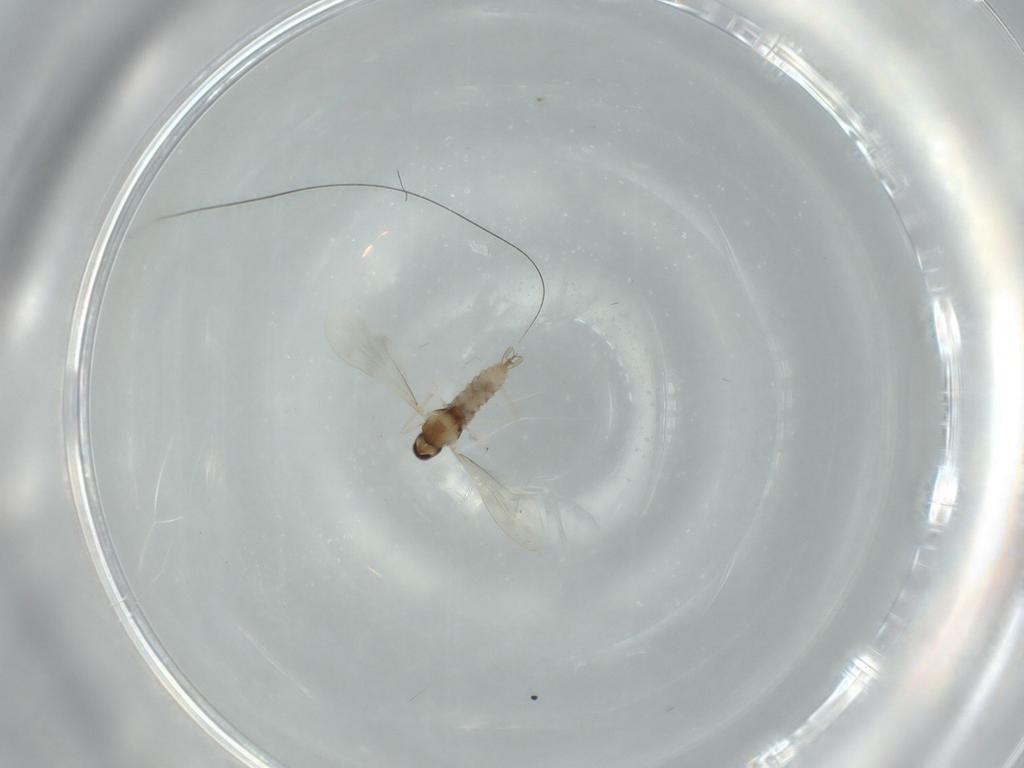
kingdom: Animalia
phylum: Arthropoda
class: Insecta
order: Diptera
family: Cecidomyiidae
